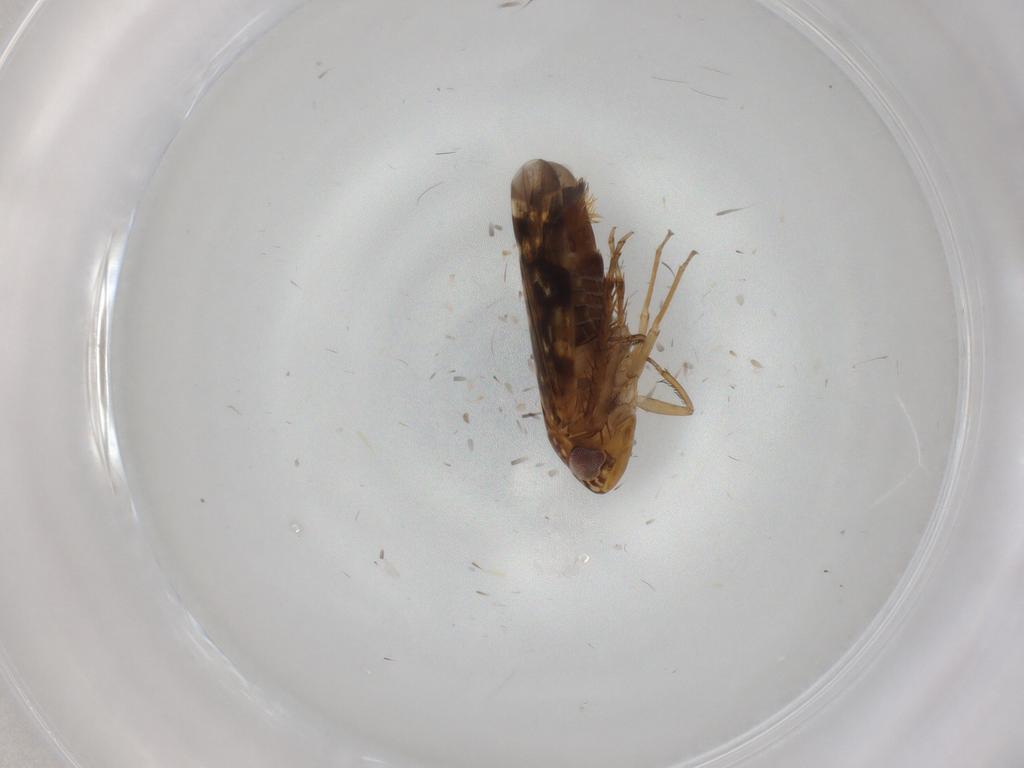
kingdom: Animalia
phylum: Arthropoda
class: Insecta
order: Hemiptera
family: Cicadellidae
